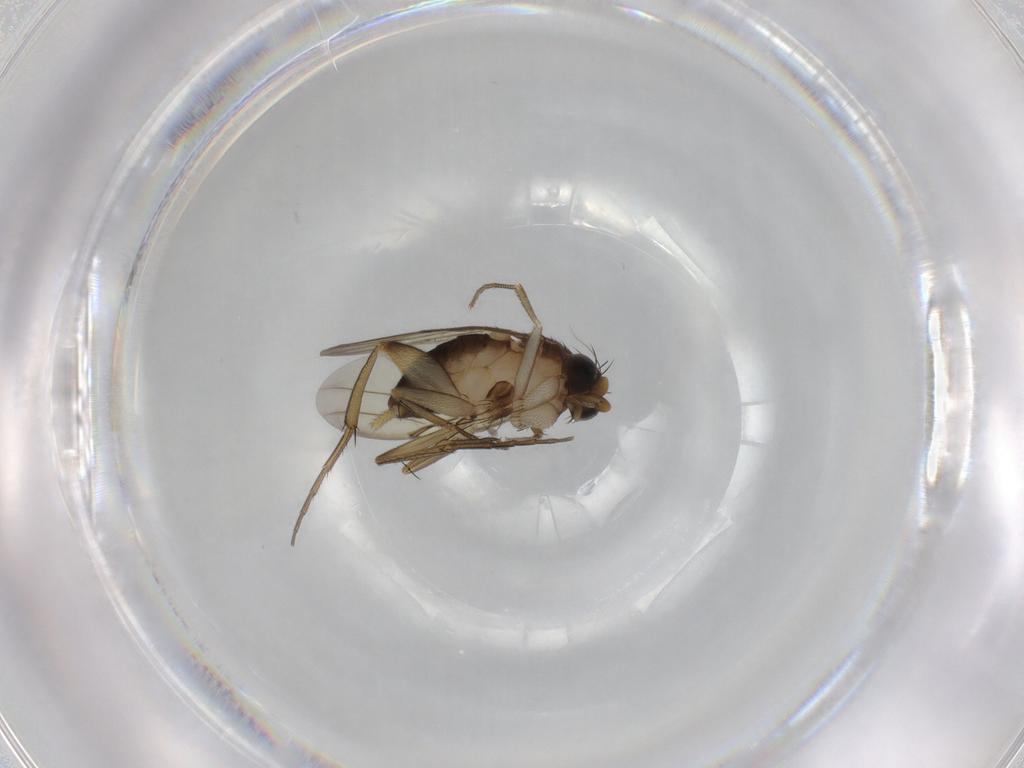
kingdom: Animalia
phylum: Arthropoda
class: Insecta
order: Diptera
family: Phoridae
